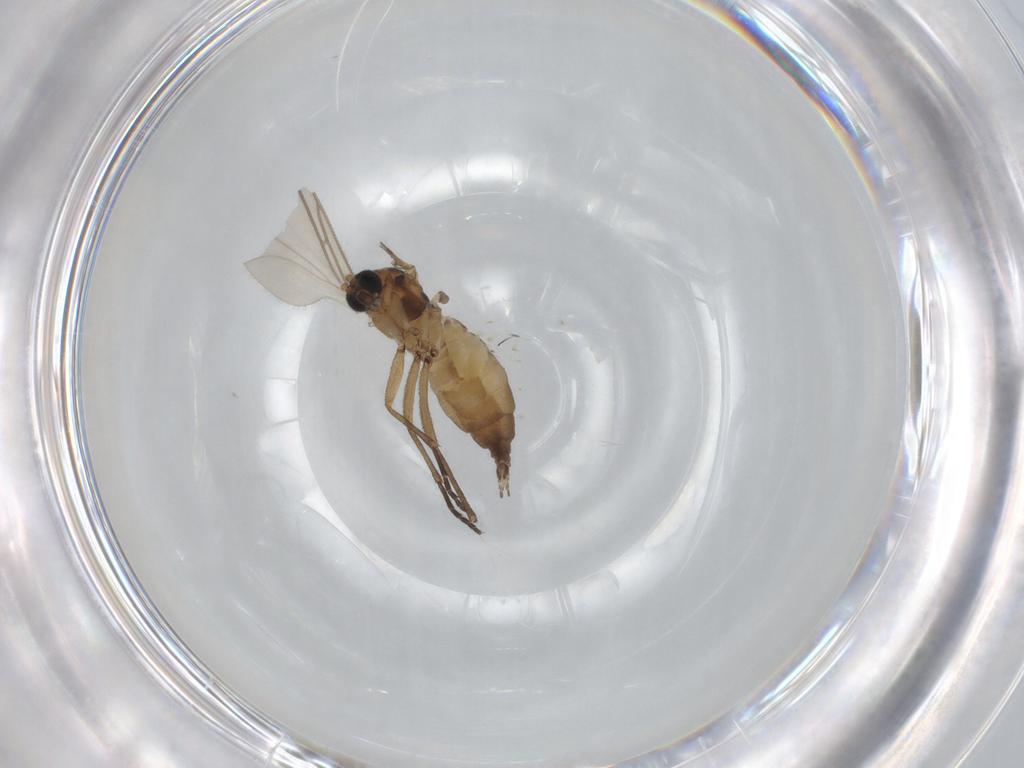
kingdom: Animalia
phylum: Arthropoda
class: Insecta
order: Diptera
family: Sciaridae
